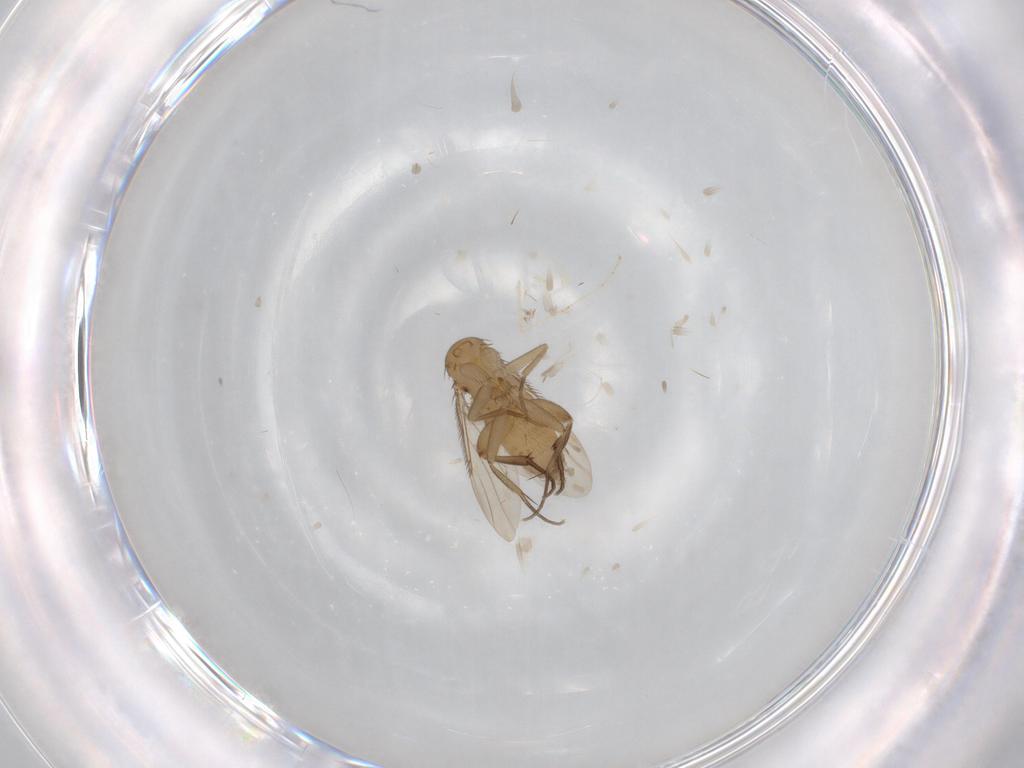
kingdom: Animalia
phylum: Arthropoda
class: Insecta
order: Diptera
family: Phoridae
